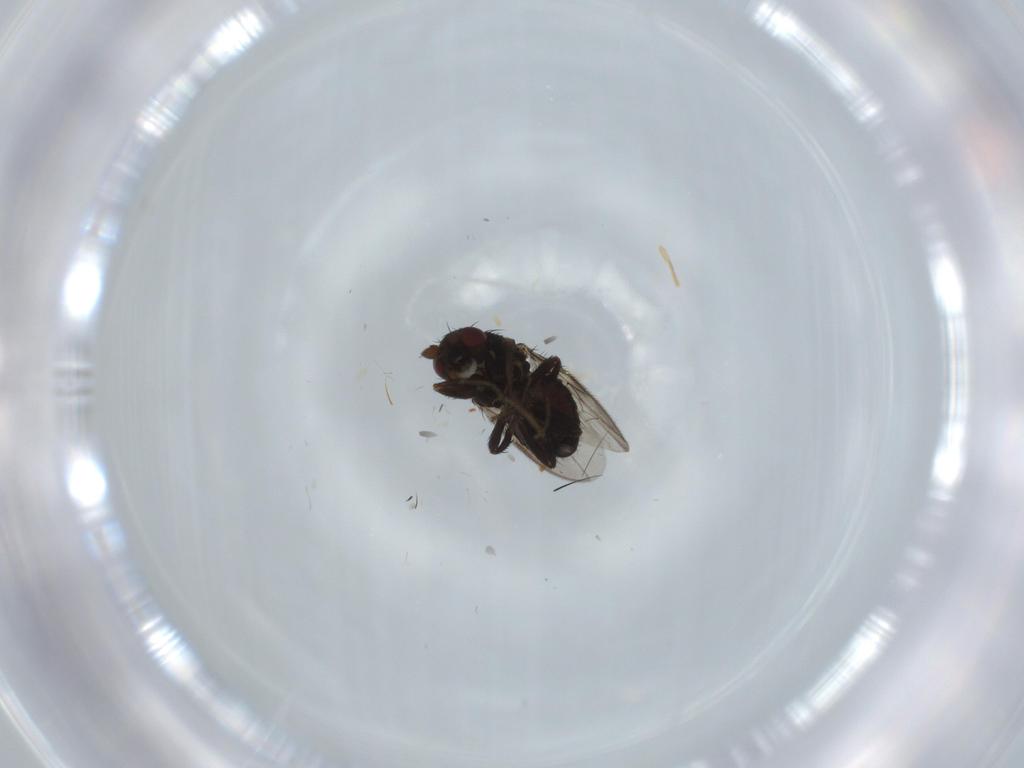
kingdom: Animalia
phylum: Arthropoda
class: Insecta
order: Diptera
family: Sphaeroceridae
